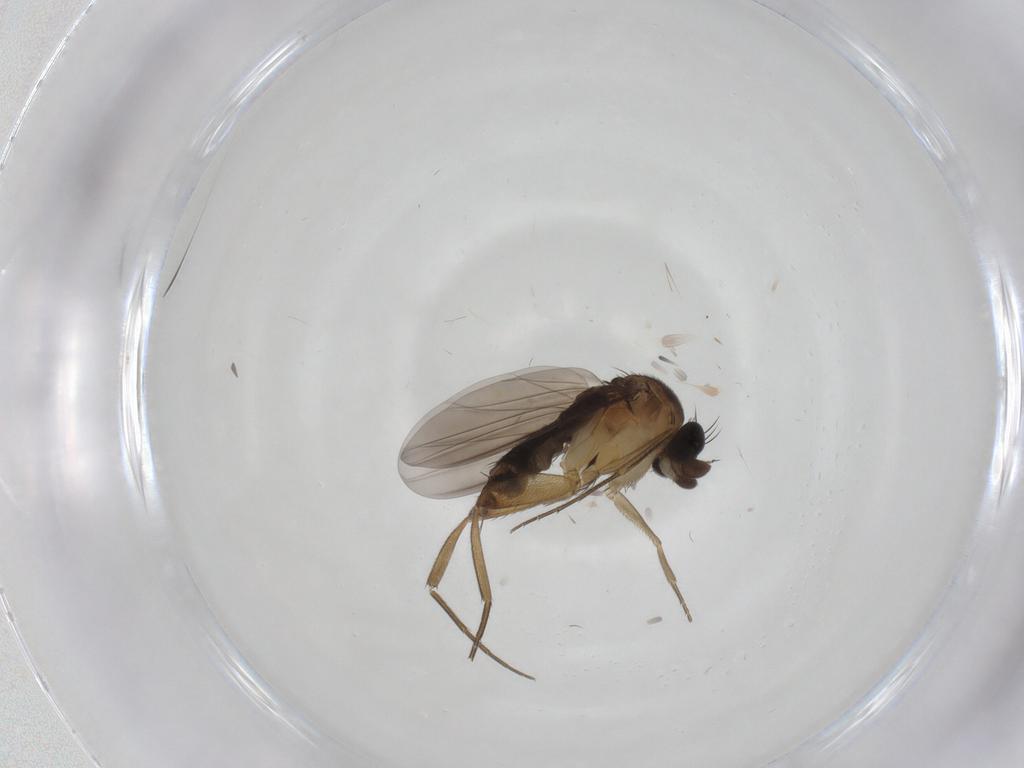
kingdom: Animalia
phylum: Arthropoda
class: Insecta
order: Diptera
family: Phoridae
